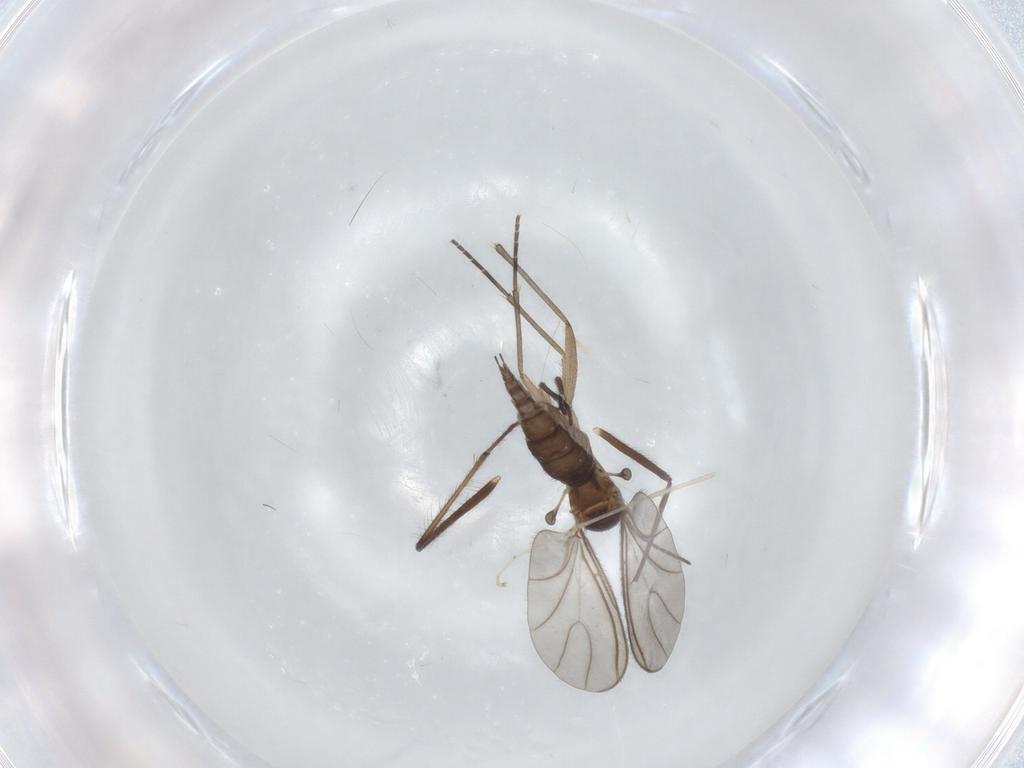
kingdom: Animalia
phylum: Arthropoda
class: Insecta
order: Diptera
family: Sciaridae
